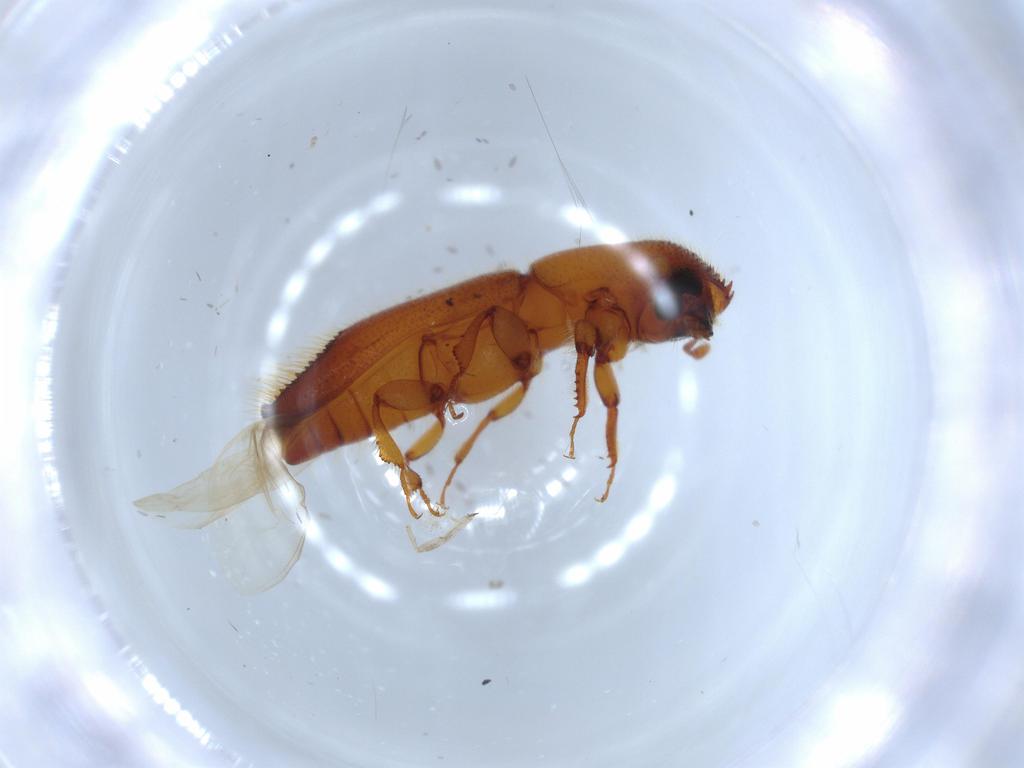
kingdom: Animalia
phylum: Arthropoda
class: Insecta
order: Coleoptera
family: Curculionidae
